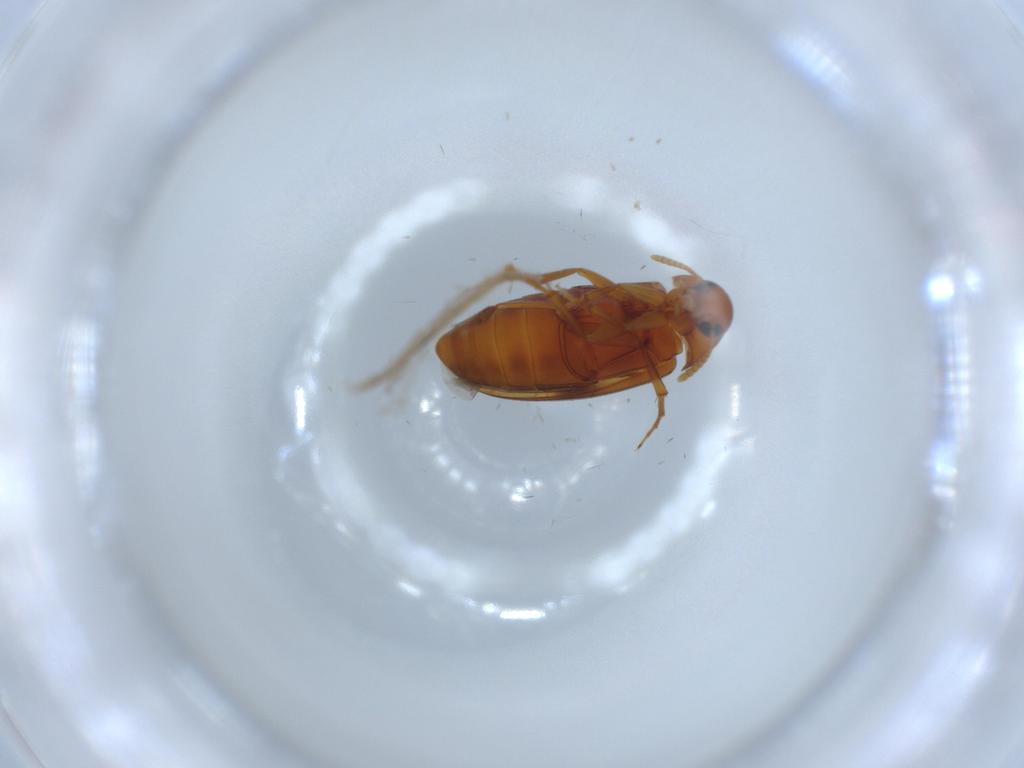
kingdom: Animalia
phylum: Arthropoda
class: Insecta
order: Coleoptera
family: Scraptiidae
